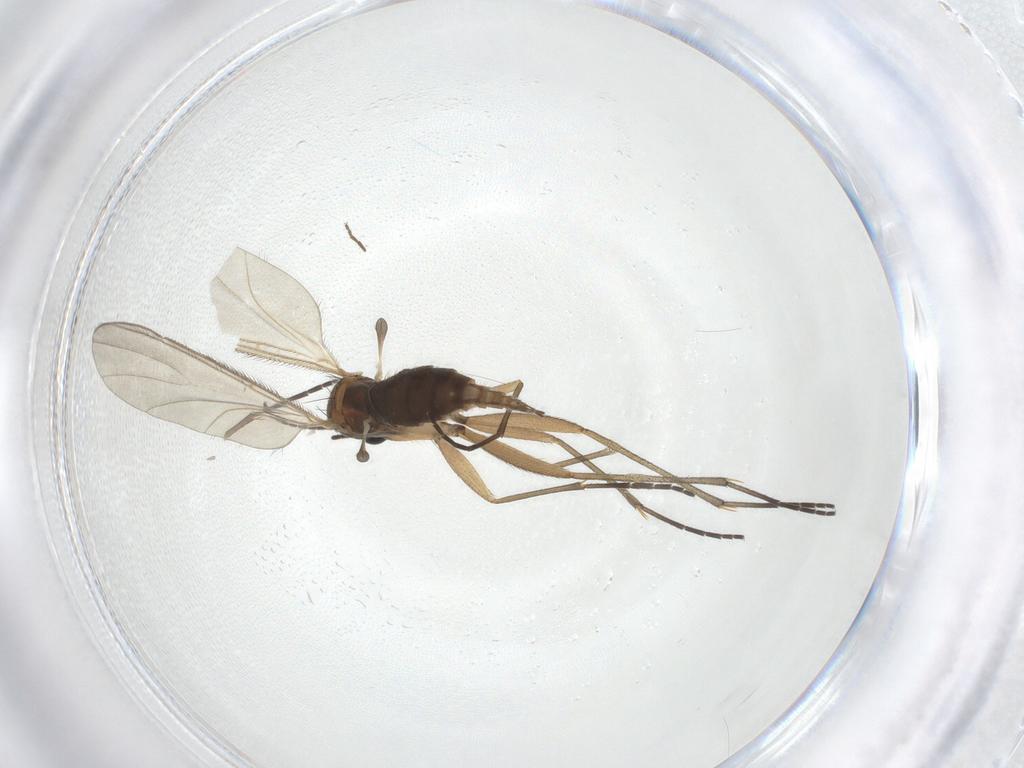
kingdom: Animalia
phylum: Arthropoda
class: Insecta
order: Diptera
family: Sciaridae
